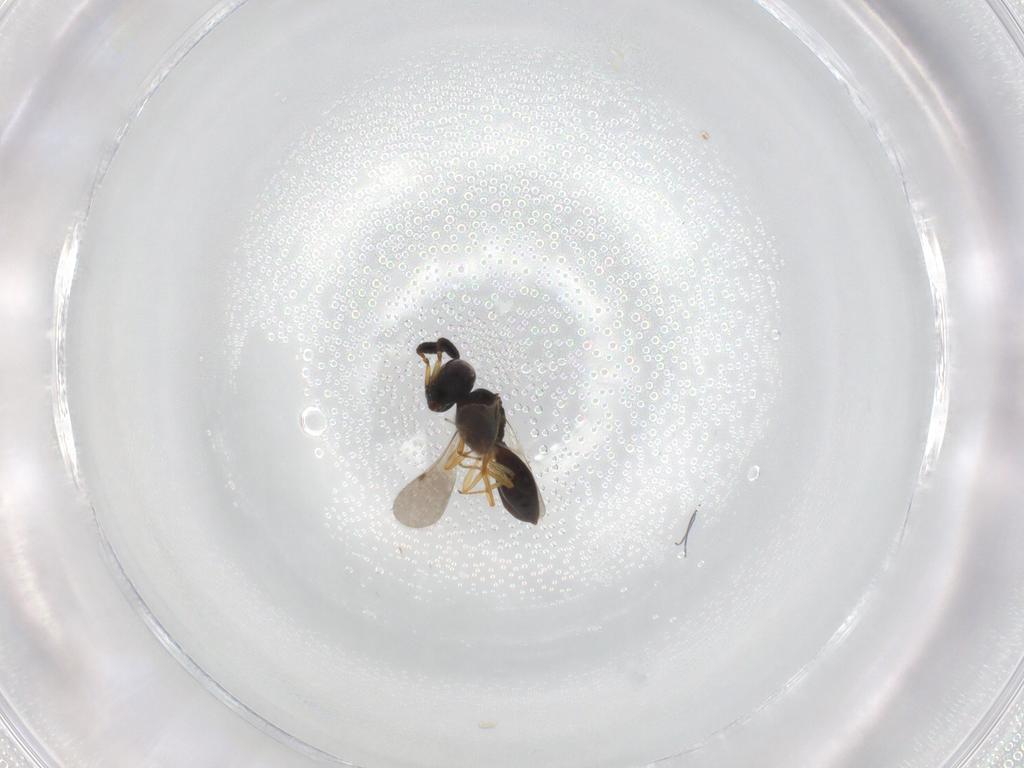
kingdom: Animalia
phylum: Arthropoda
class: Insecta
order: Hymenoptera
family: Scelionidae
